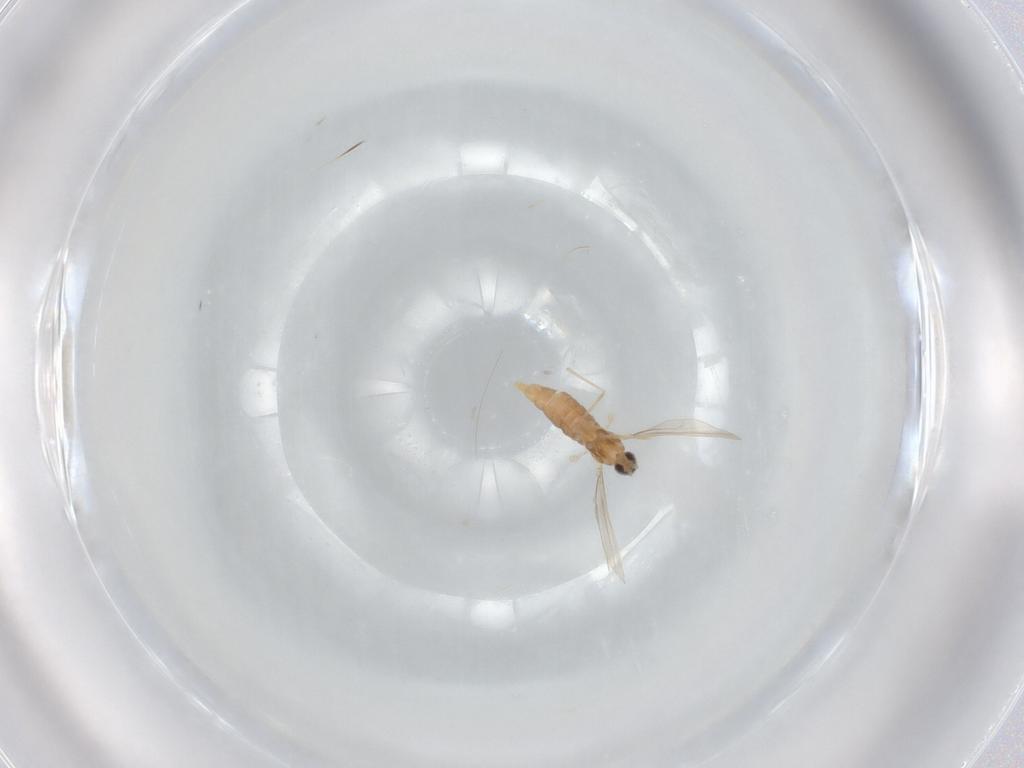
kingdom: Animalia
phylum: Arthropoda
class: Insecta
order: Diptera
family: Cecidomyiidae
